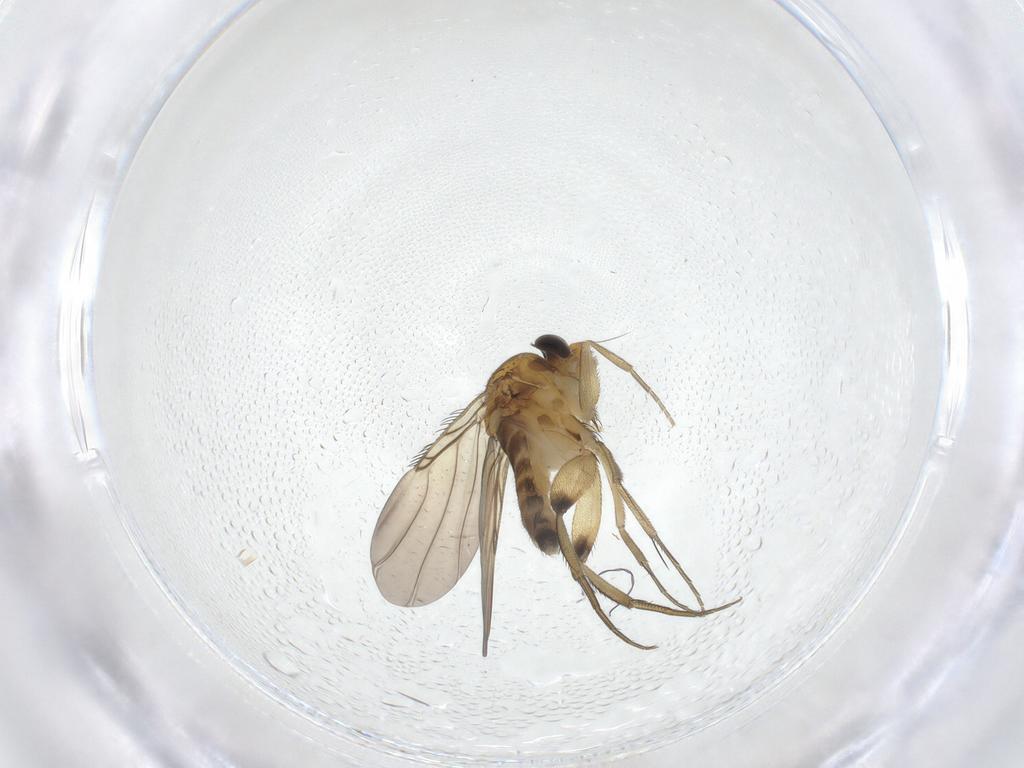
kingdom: Animalia
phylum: Arthropoda
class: Insecta
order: Diptera
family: Phoridae
